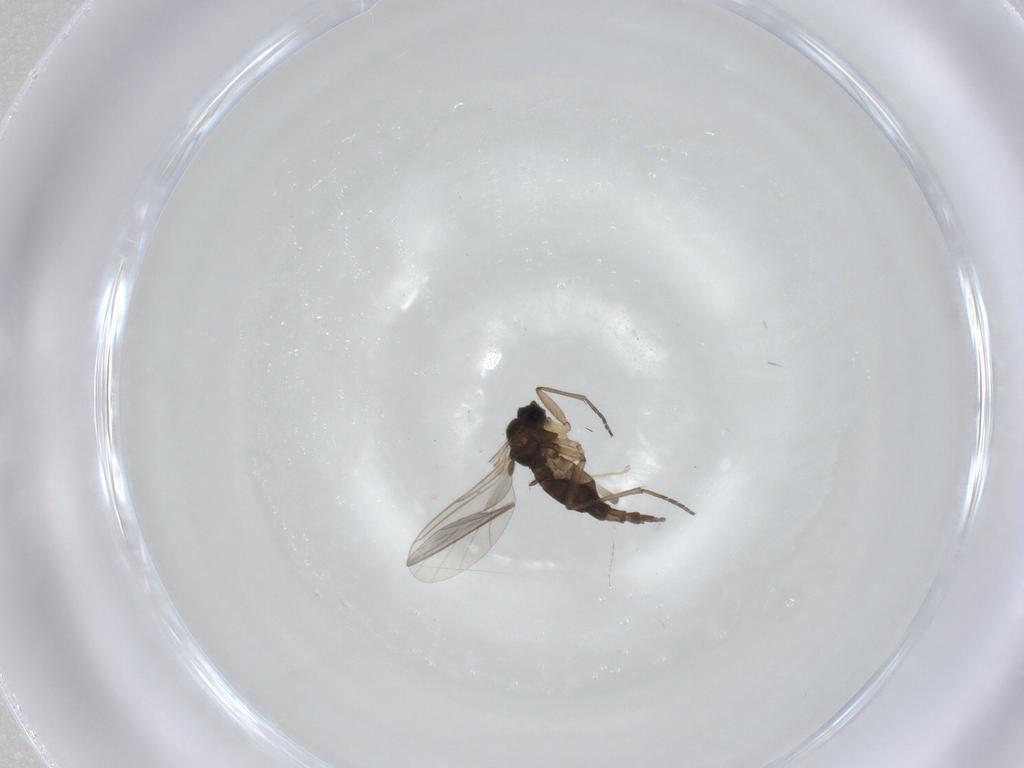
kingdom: Animalia
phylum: Arthropoda
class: Insecta
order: Diptera
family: Sciaridae
